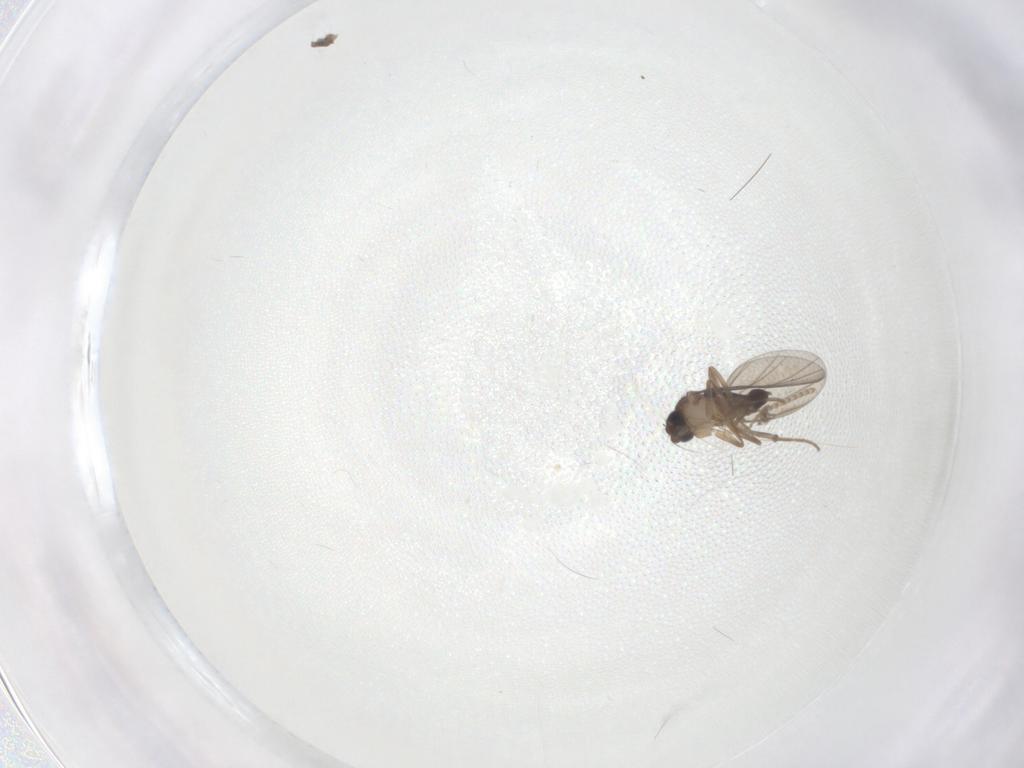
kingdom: Animalia
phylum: Arthropoda
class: Insecta
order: Diptera
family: Phoridae
